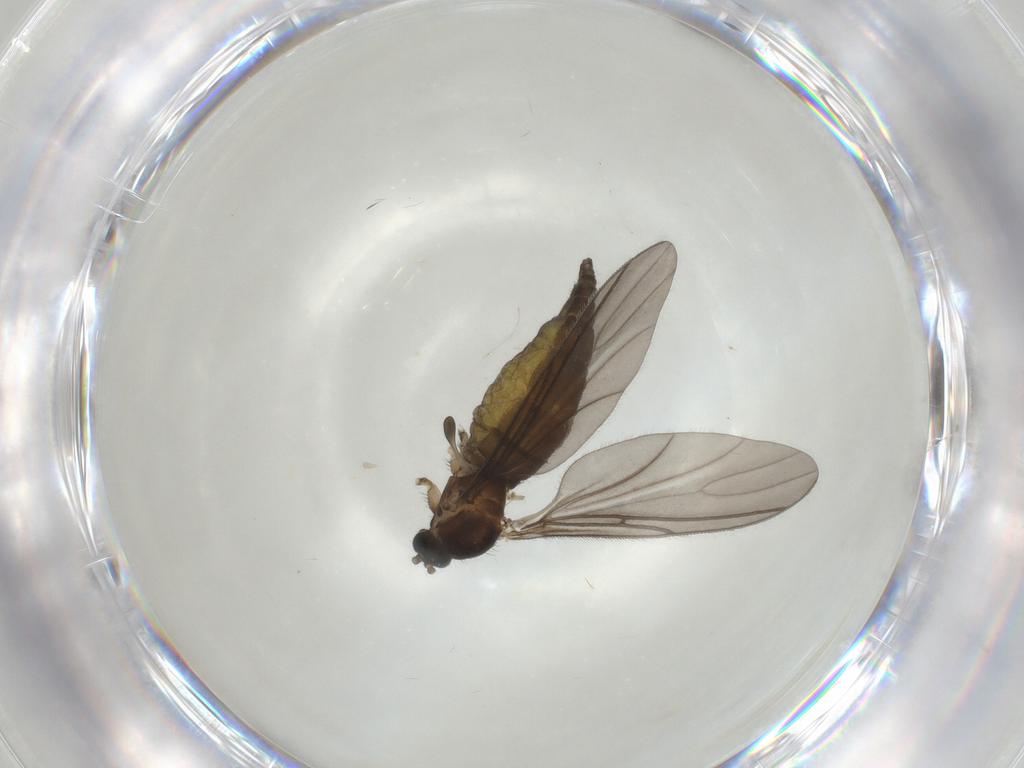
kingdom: Animalia
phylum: Arthropoda
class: Insecta
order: Diptera
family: Sciaridae
